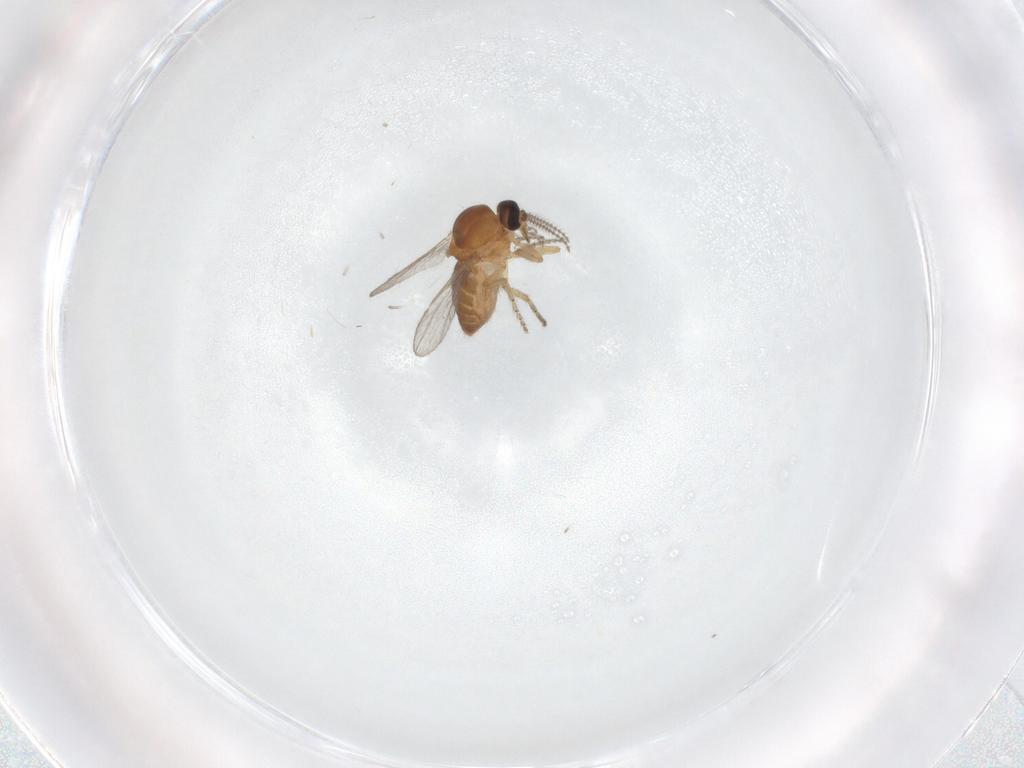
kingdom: Animalia
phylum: Arthropoda
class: Insecta
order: Diptera
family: Ceratopogonidae
